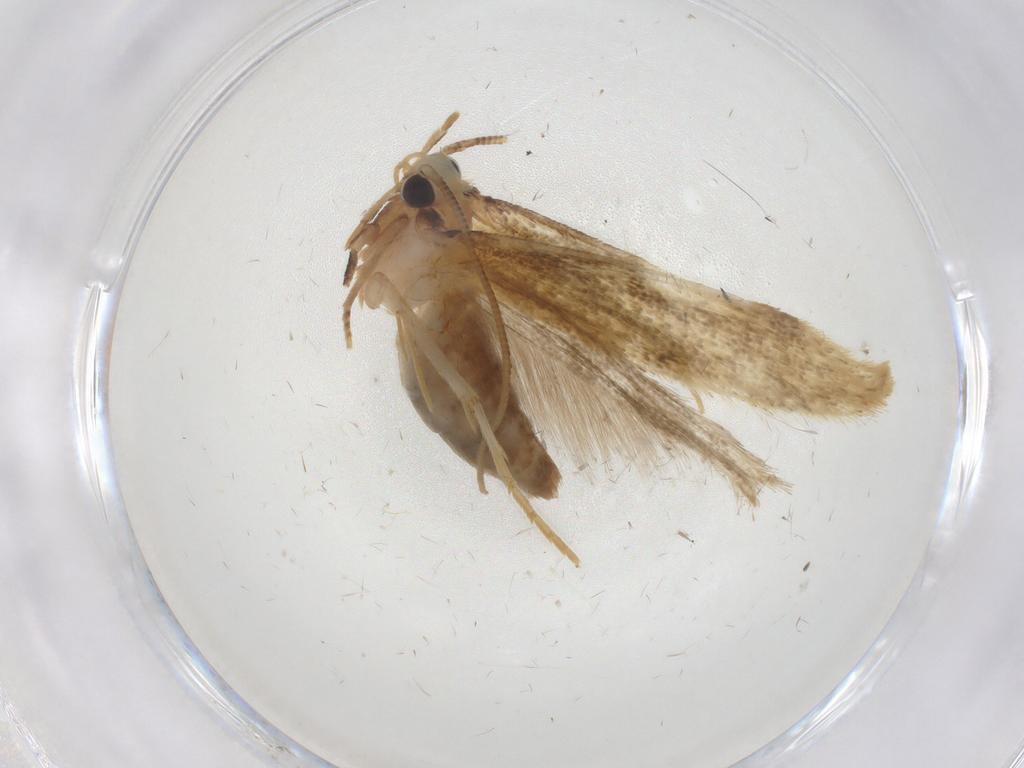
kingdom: Animalia
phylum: Arthropoda
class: Insecta
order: Lepidoptera
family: Tineidae
